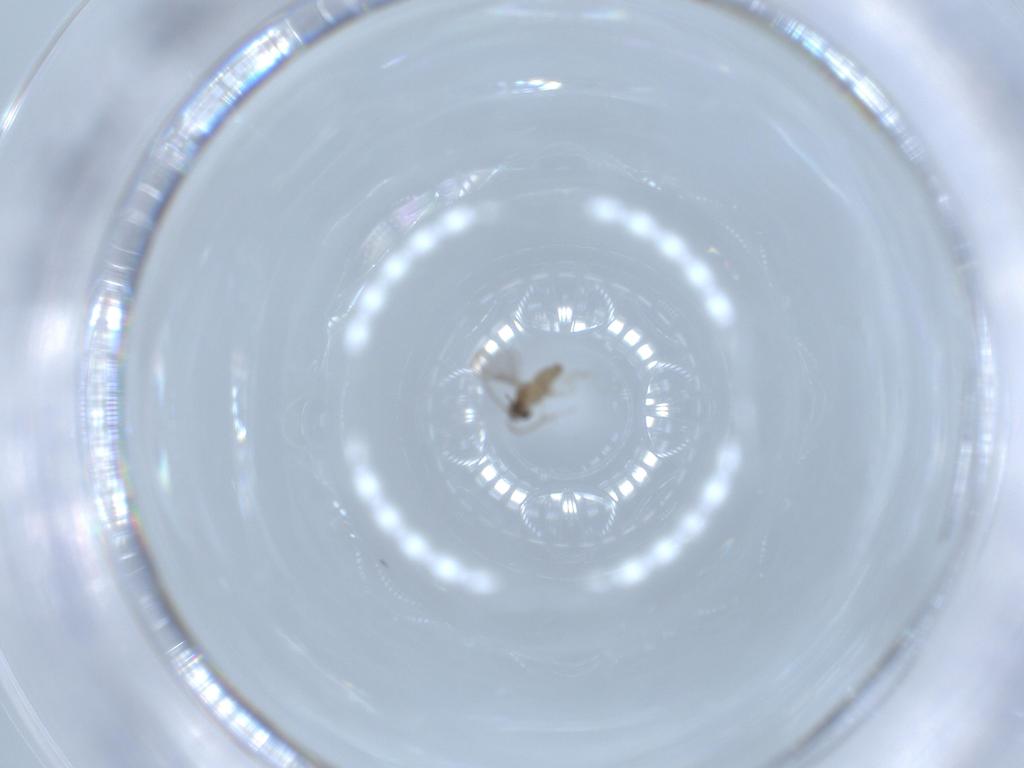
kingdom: Animalia
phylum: Arthropoda
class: Insecta
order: Diptera
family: Cecidomyiidae
